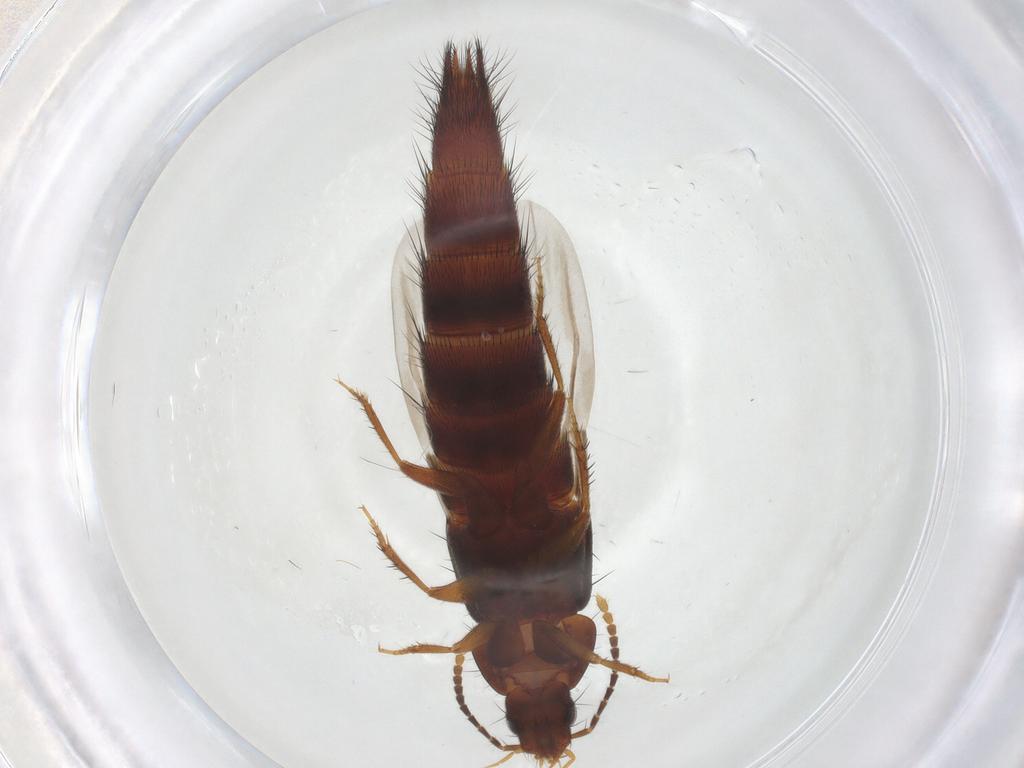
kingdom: Animalia
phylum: Arthropoda
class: Insecta
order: Coleoptera
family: Staphylinidae
